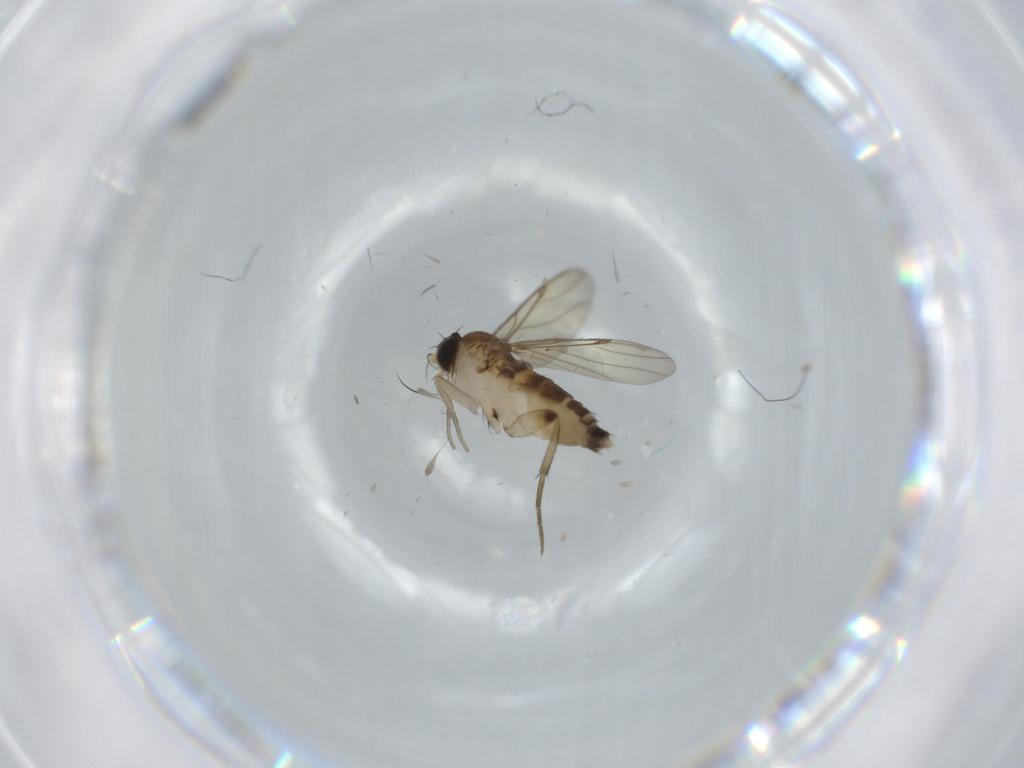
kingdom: Animalia
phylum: Arthropoda
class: Insecta
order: Diptera
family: Phoridae
